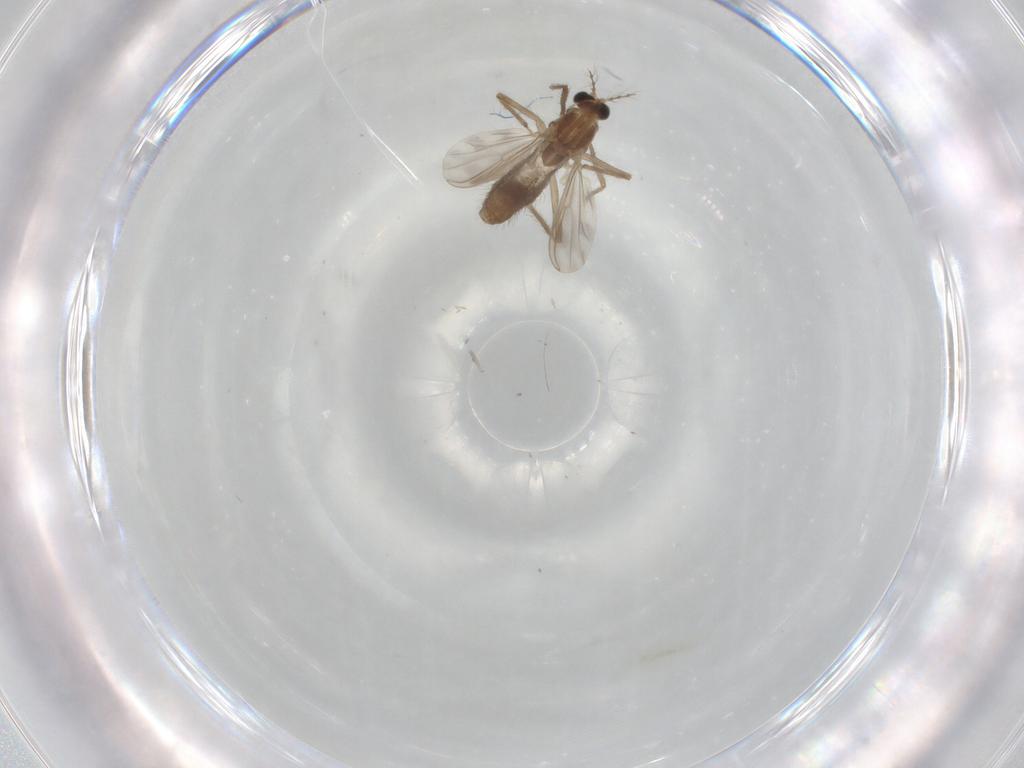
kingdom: Animalia
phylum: Arthropoda
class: Insecta
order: Diptera
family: Chironomidae
